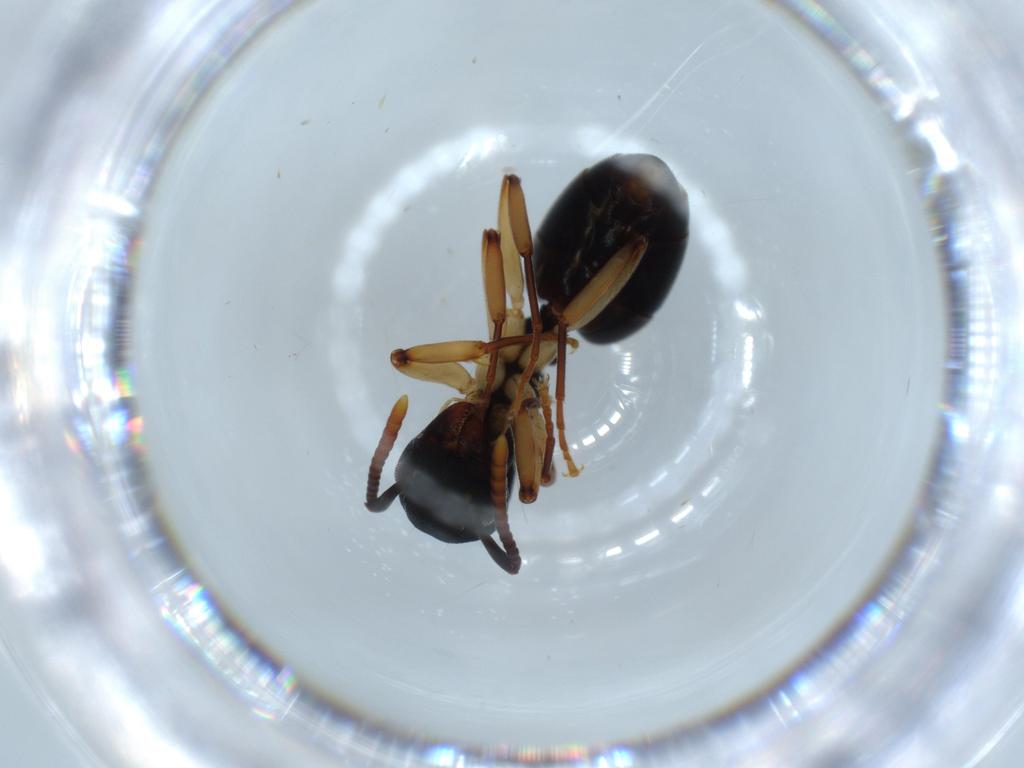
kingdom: Animalia
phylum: Arthropoda
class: Insecta
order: Hymenoptera
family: Formicidae
